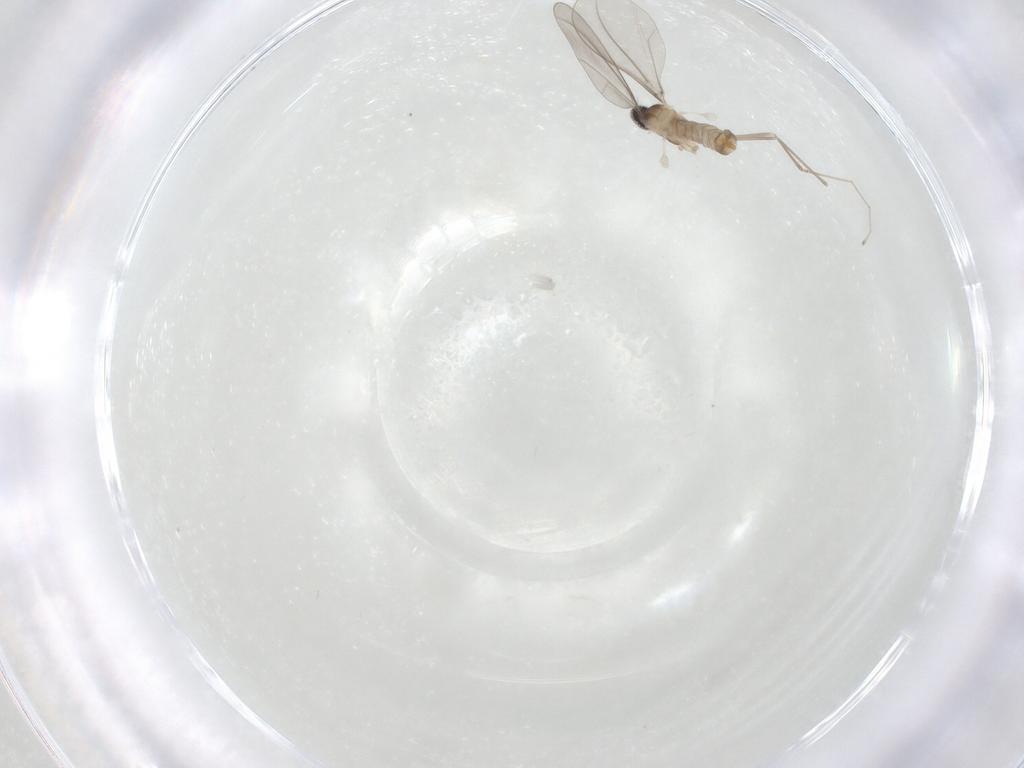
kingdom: Animalia
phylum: Arthropoda
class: Insecta
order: Diptera
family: Cecidomyiidae
